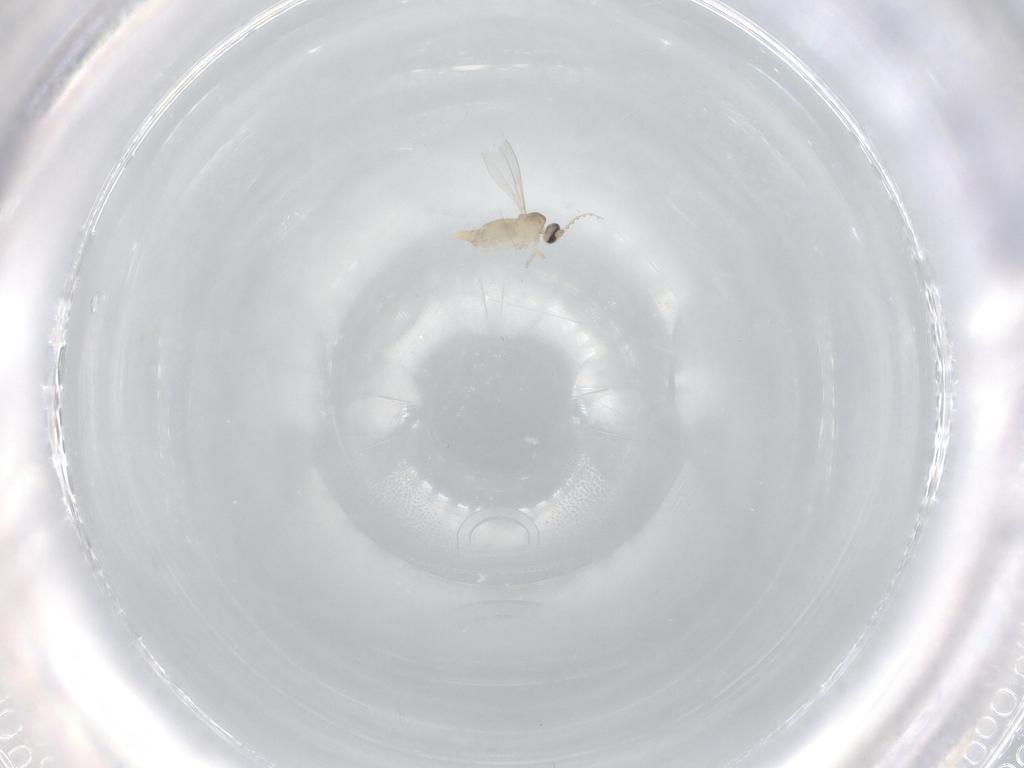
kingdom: Animalia
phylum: Arthropoda
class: Insecta
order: Diptera
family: Cecidomyiidae
